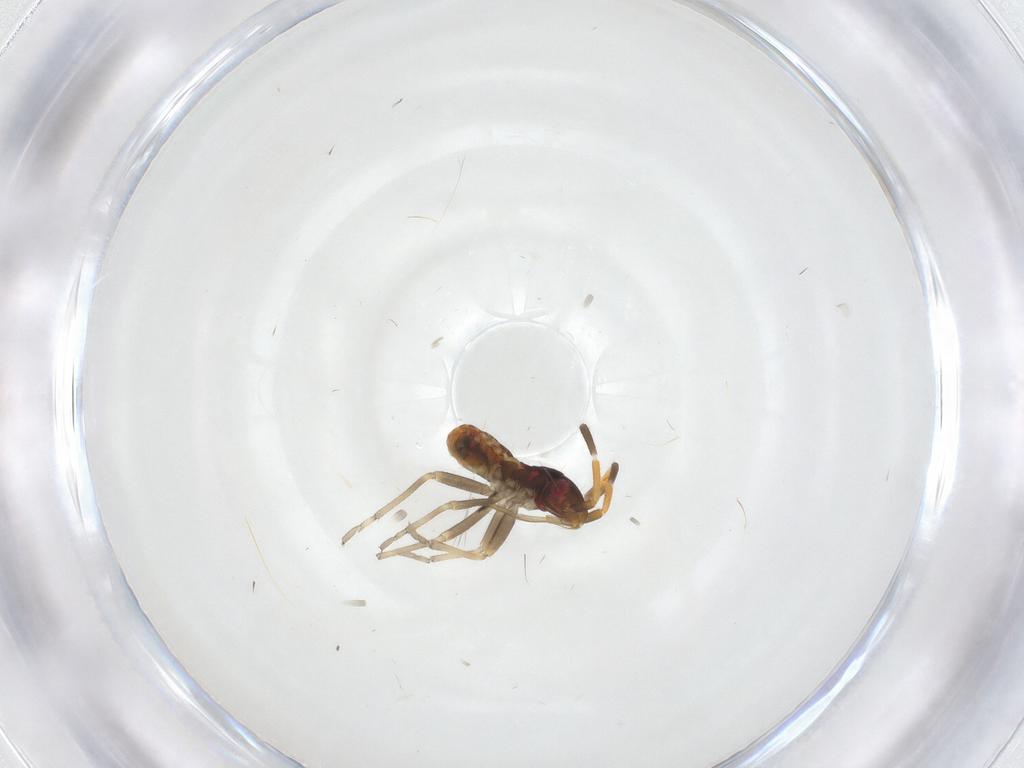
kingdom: Animalia
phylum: Arthropoda
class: Insecta
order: Hemiptera
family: Rhyparochromidae
